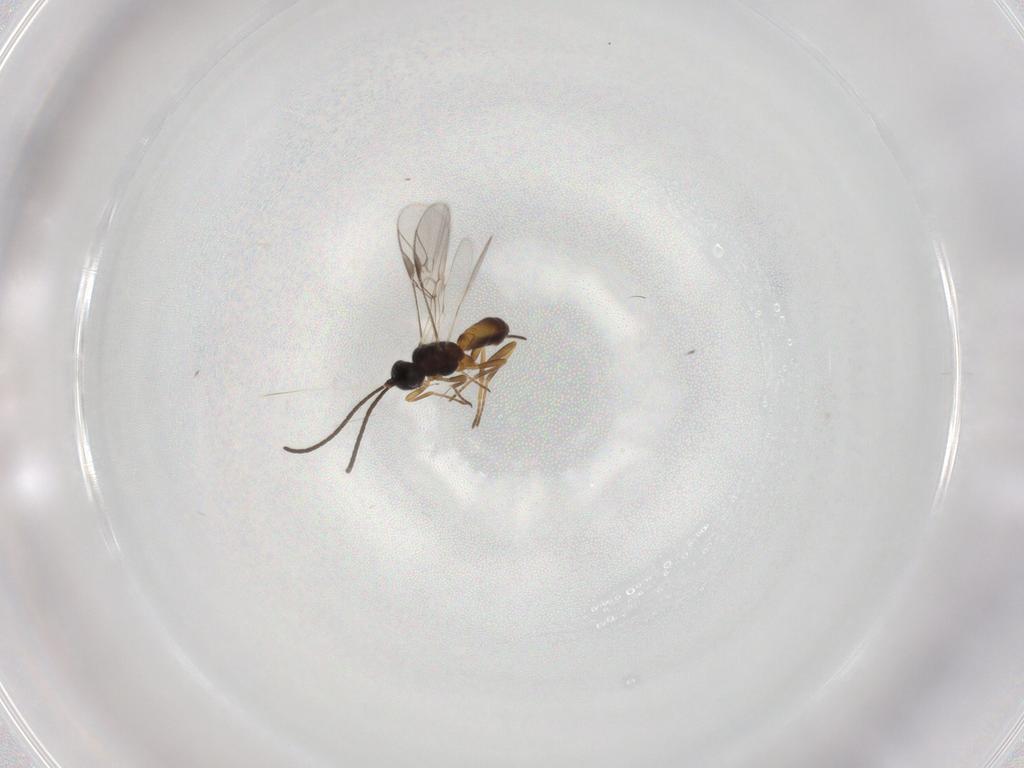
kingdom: Animalia
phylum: Arthropoda
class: Insecta
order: Hymenoptera
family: Braconidae
